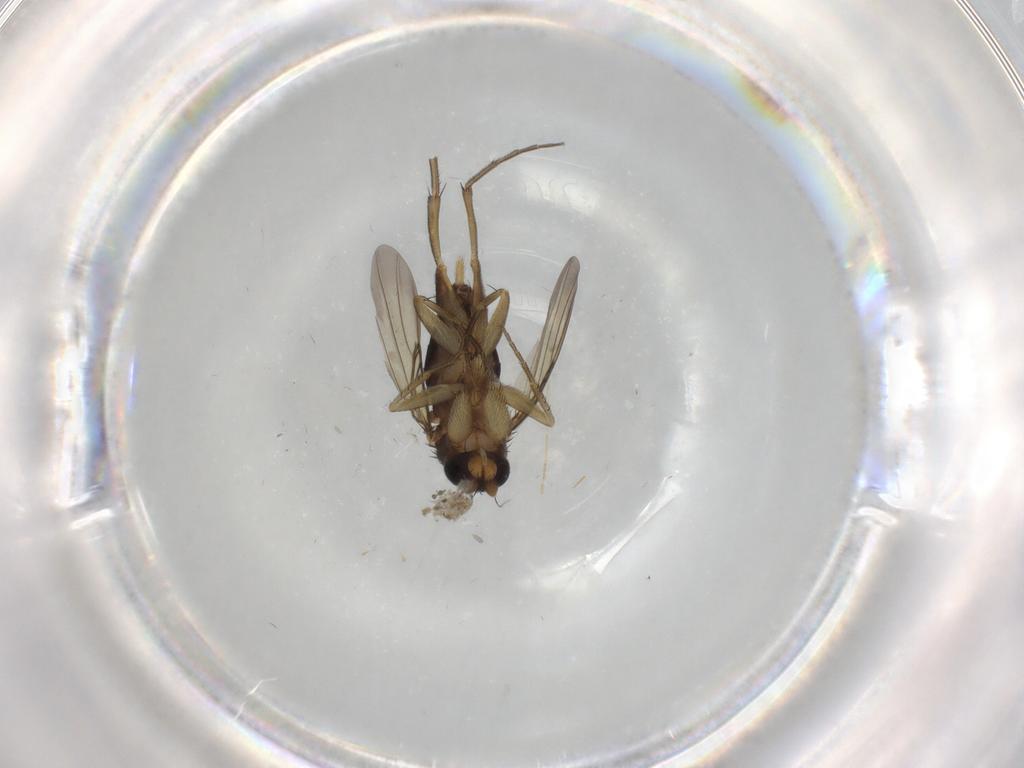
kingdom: Animalia
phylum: Arthropoda
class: Insecta
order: Diptera
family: Phoridae
